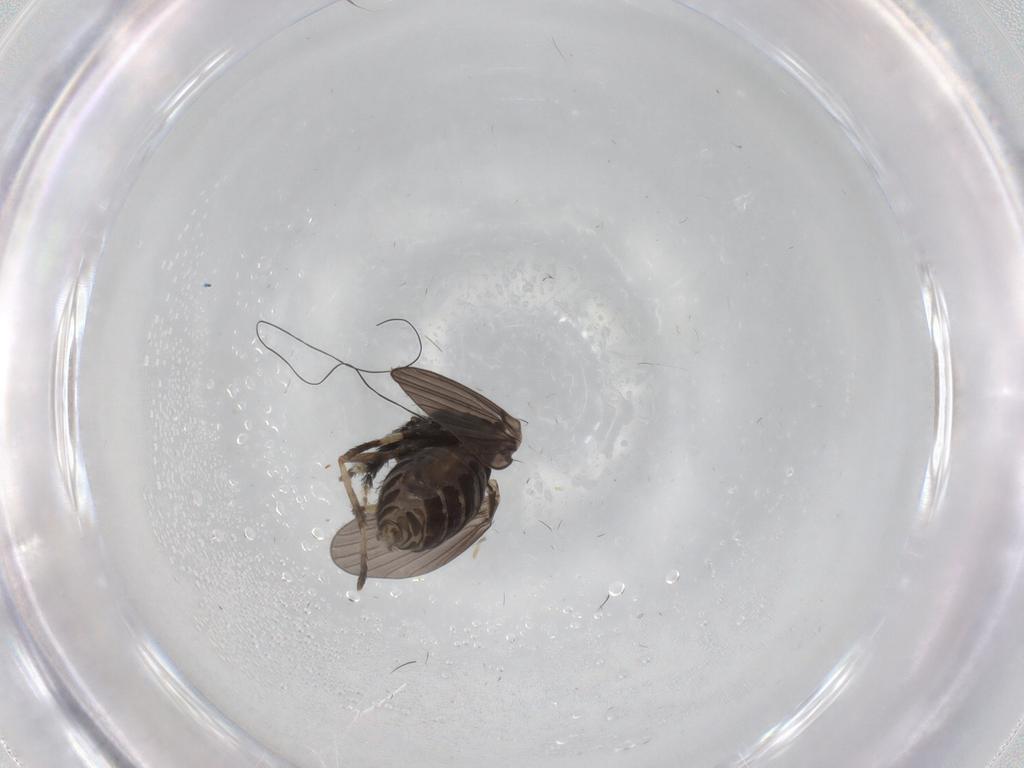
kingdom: Animalia
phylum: Arthropoda
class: Insecta
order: Diptera
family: Psychodidae
